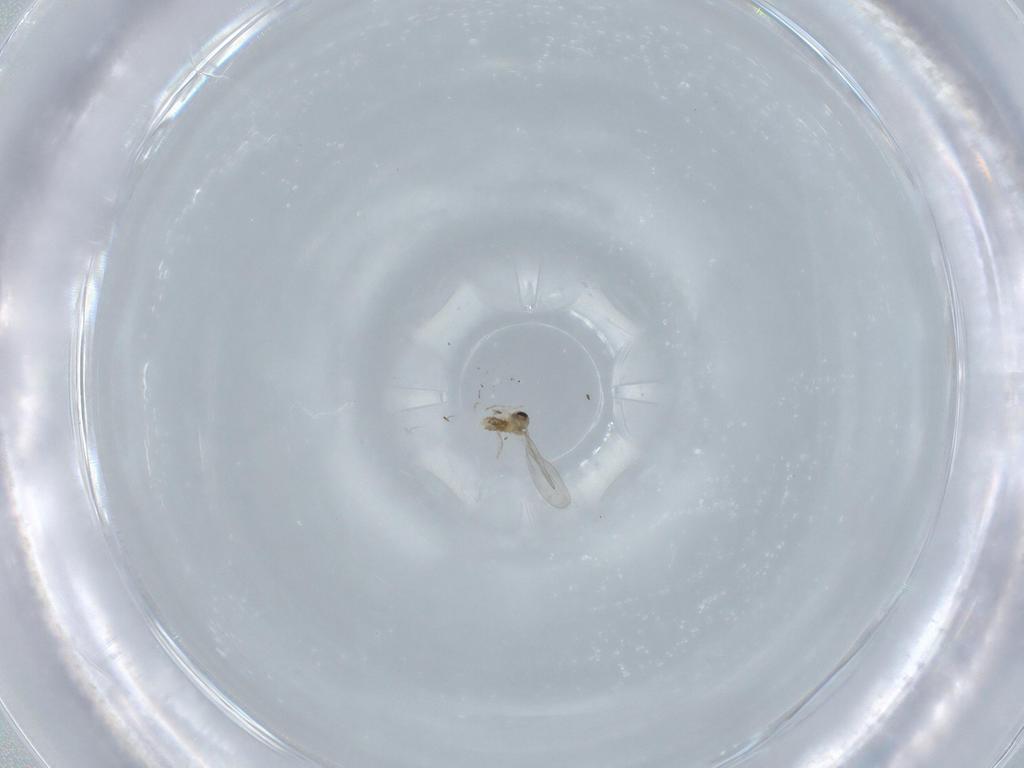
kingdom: Animalia
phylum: Arthropoda
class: Insecta
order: Diptera
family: Cecidomyiidae
